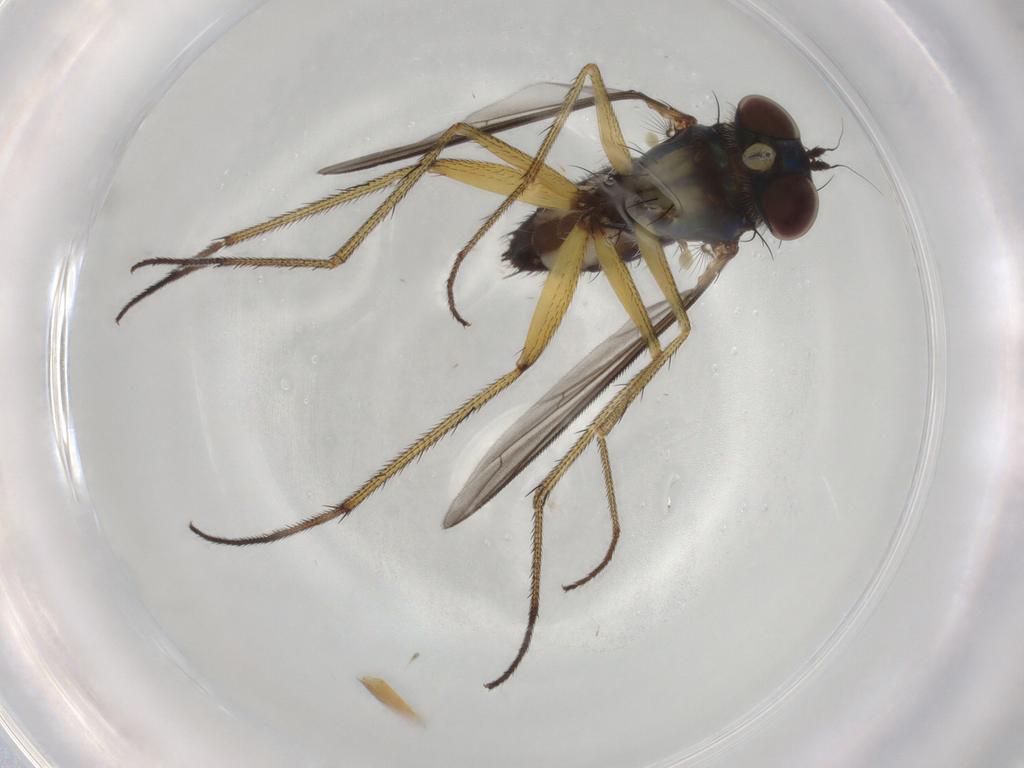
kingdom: Animalia
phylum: Arthropoda
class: Insecta
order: Diptera
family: Dolichopodidae
